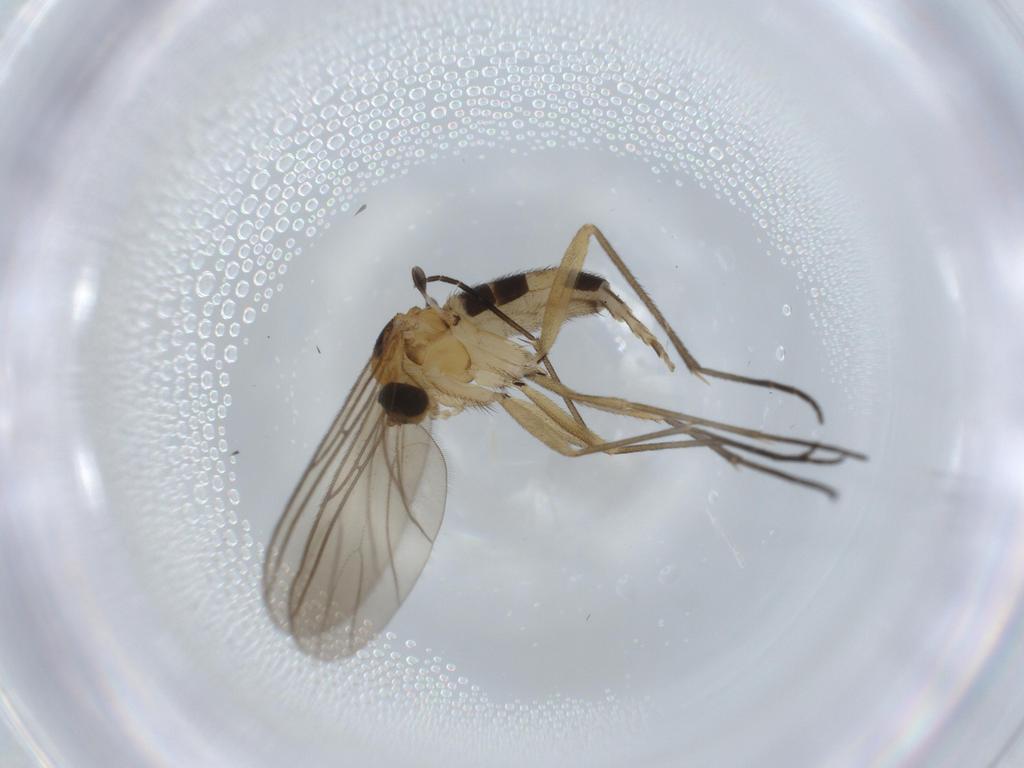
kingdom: Animalia
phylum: Arthropoda
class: Insecta
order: Diptera
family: Sciaridae
